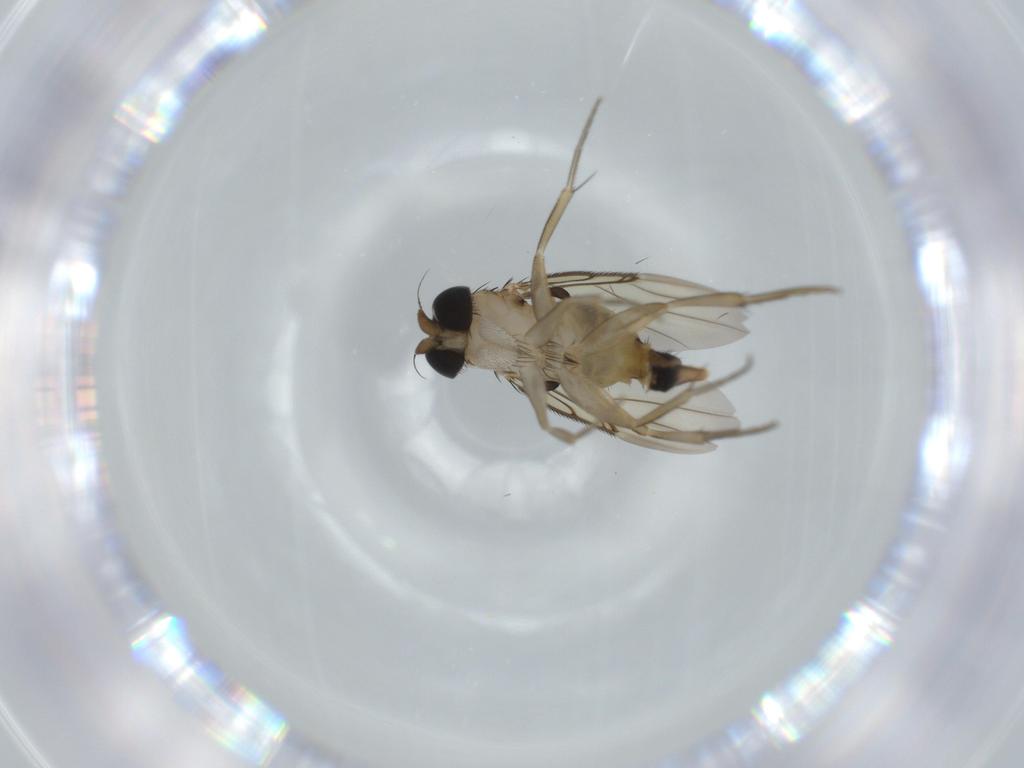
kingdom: Animalia
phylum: Arthropoda
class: Insecta
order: Diptera
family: Phoridae
